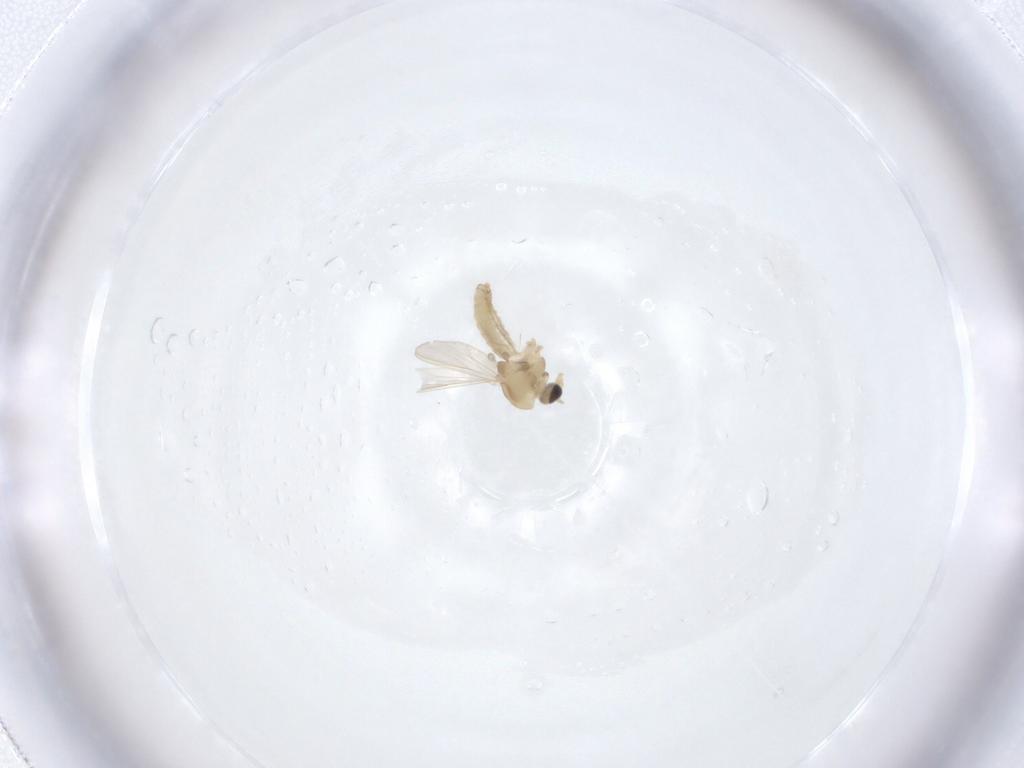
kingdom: Animalia
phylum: Arthropoda
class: Insecta
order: Diptera
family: Chironomidae
